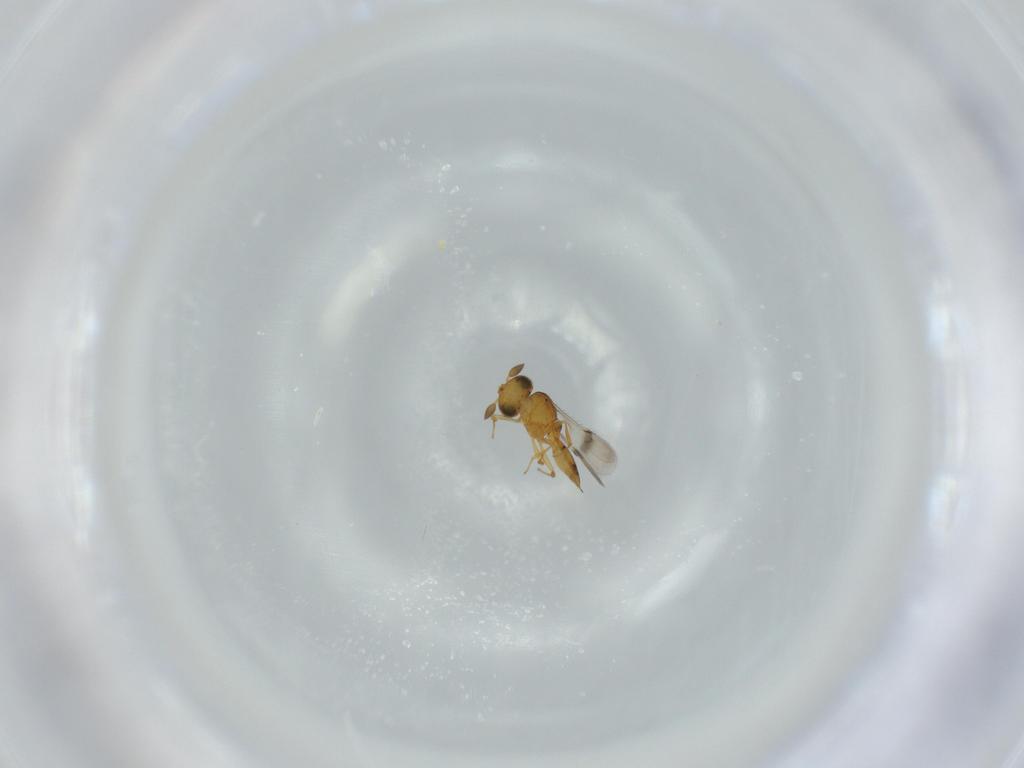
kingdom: Animalia
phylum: Arthropoda
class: Insecta
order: Hymenoptera
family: Scelionidae
